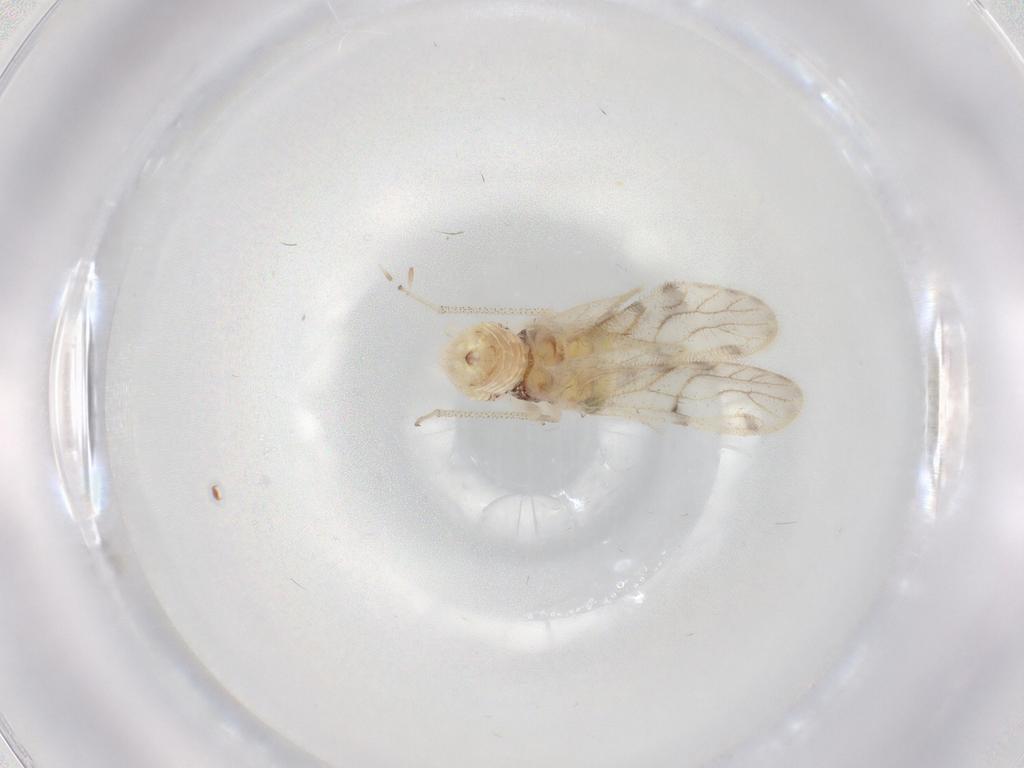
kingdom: Animalia
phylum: Arthropoda
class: Insecta
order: Psocodea
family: Pseudocaeciliidae
